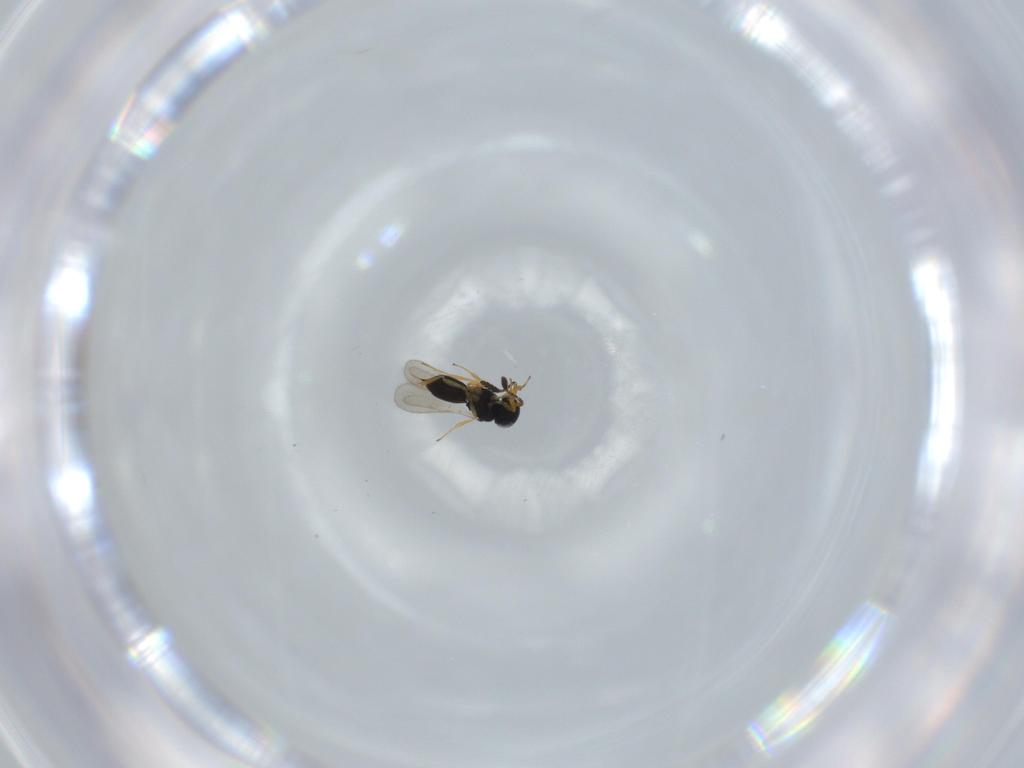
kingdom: Animalia
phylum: Arthropoda
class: Insecta
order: Hymenoptera
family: Scelionidae
